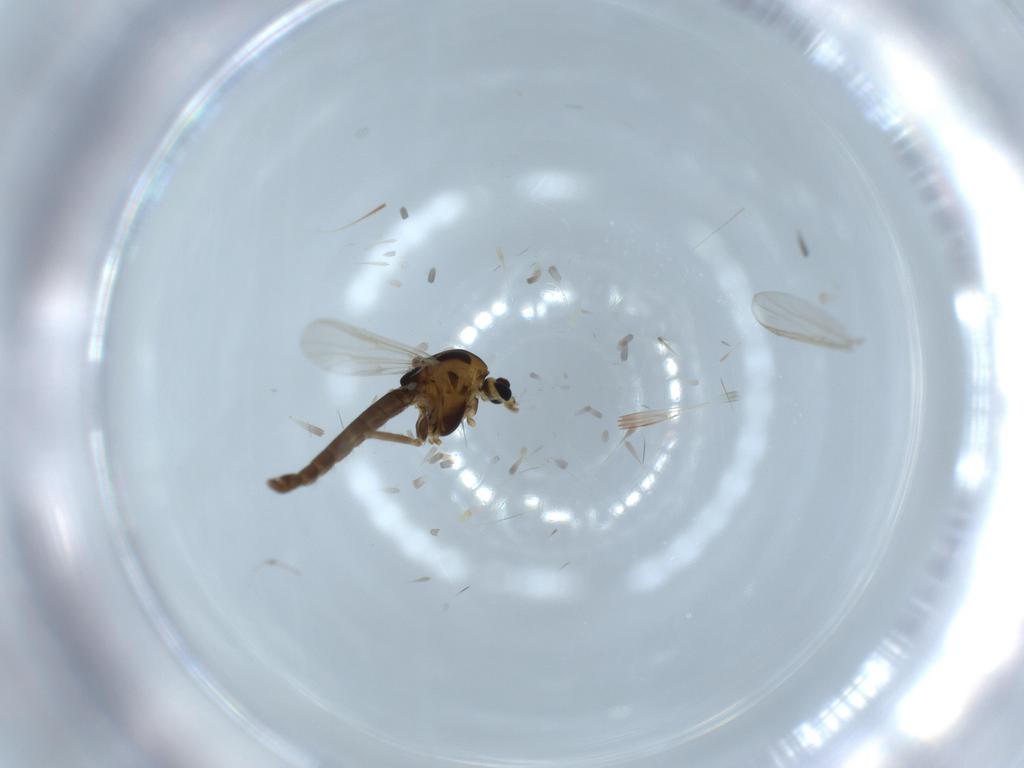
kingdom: Animalia
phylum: Arthropoda
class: Insecta
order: Diptera
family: Chironomidae
